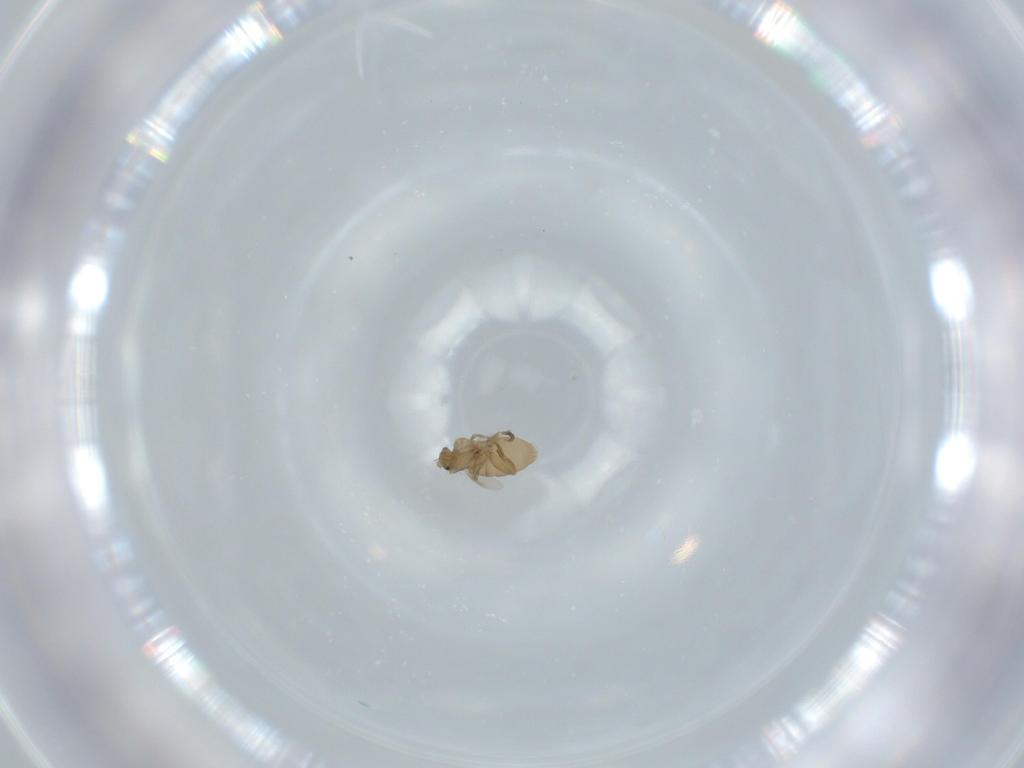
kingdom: Animalia
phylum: Arthropoda
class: Insecta
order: Diptera
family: Phoridae
